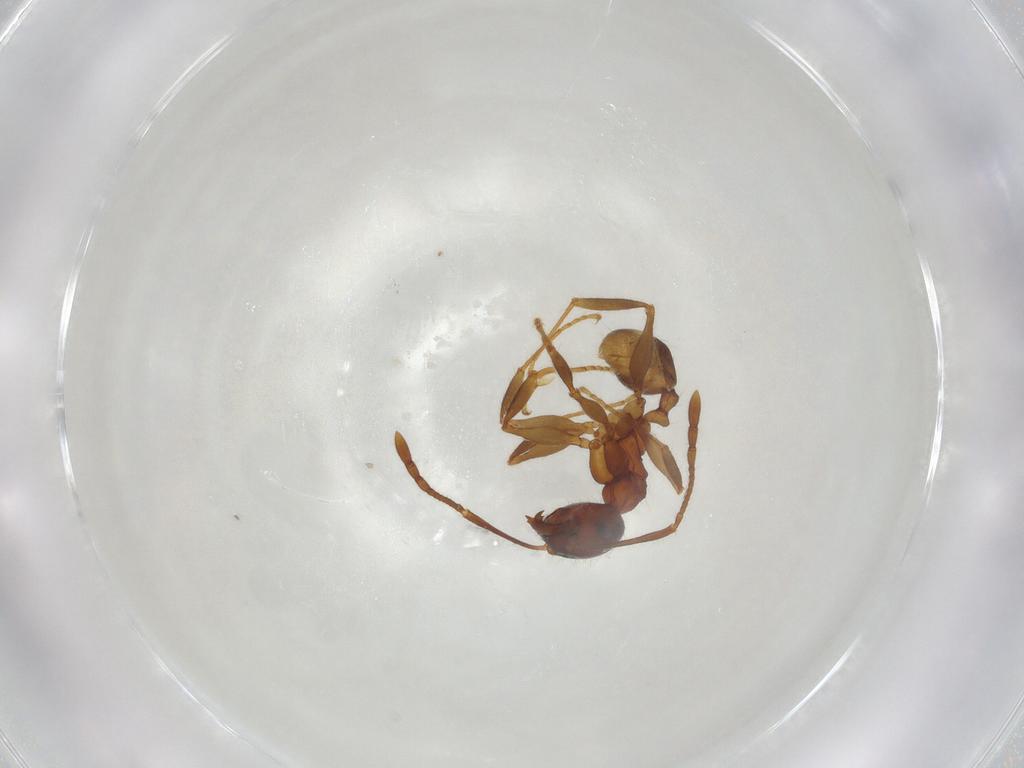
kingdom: Animalia
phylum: Arthropoda
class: Insecta
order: Hymenoptera
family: Formicidae
